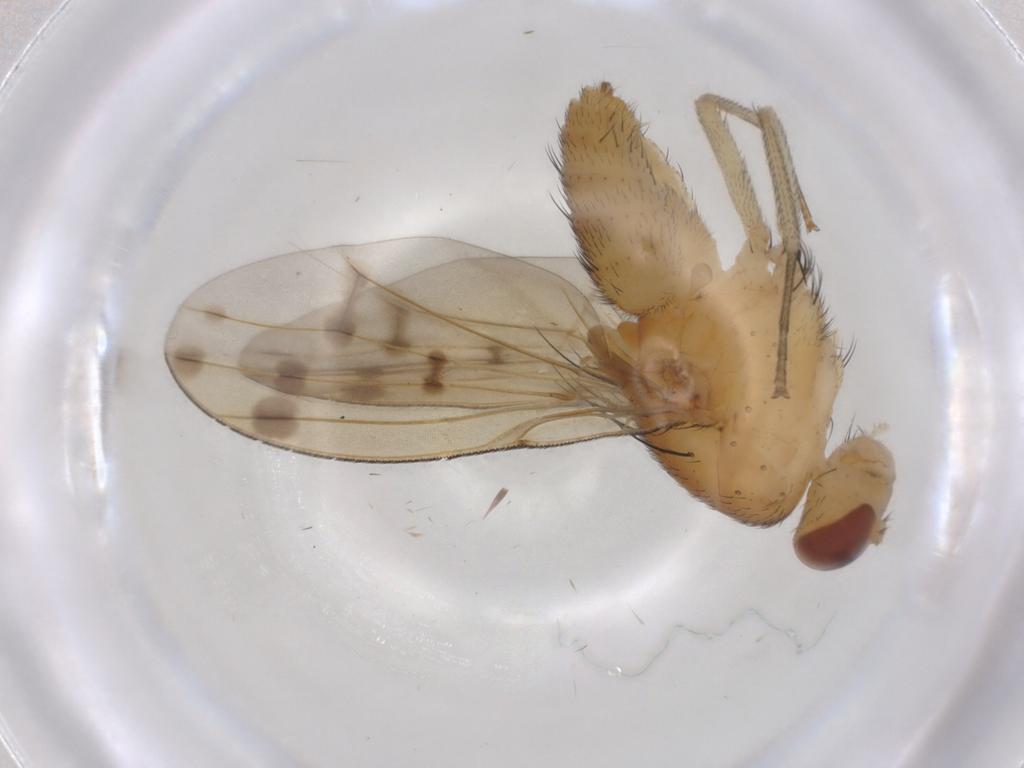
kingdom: Animalia
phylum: Arthropoda
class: Insecta
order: Diptera
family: Lauxaniidae
